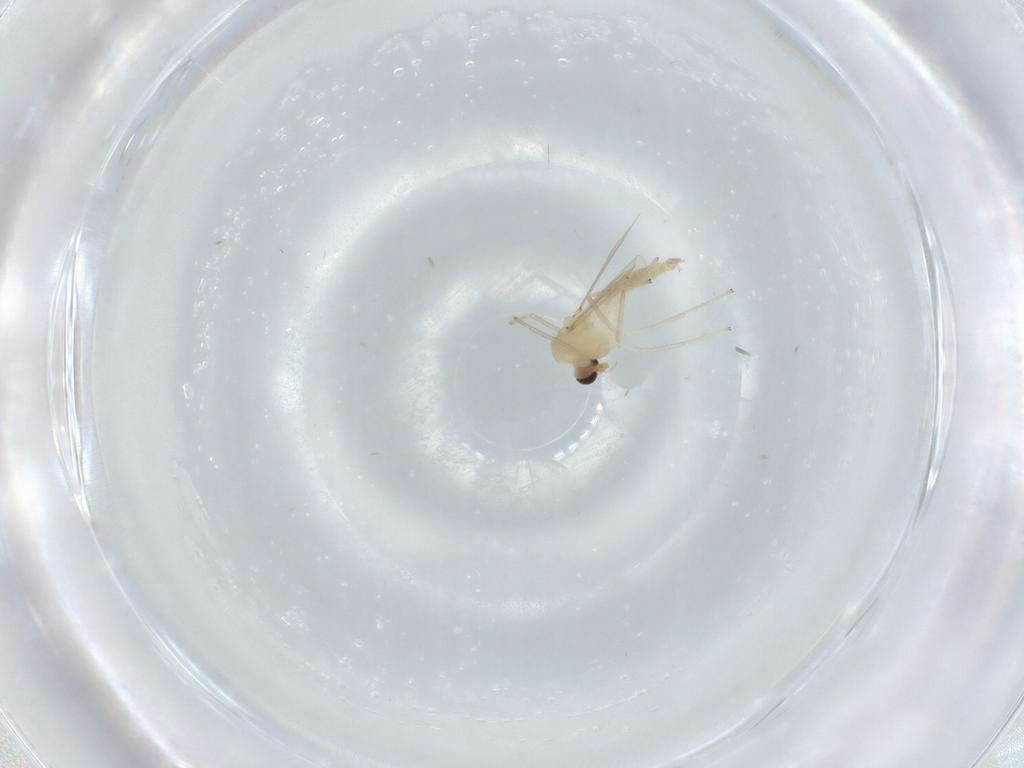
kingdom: Animalia
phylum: Arthropoda
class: Insecta
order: Diptera
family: Chironomidae
